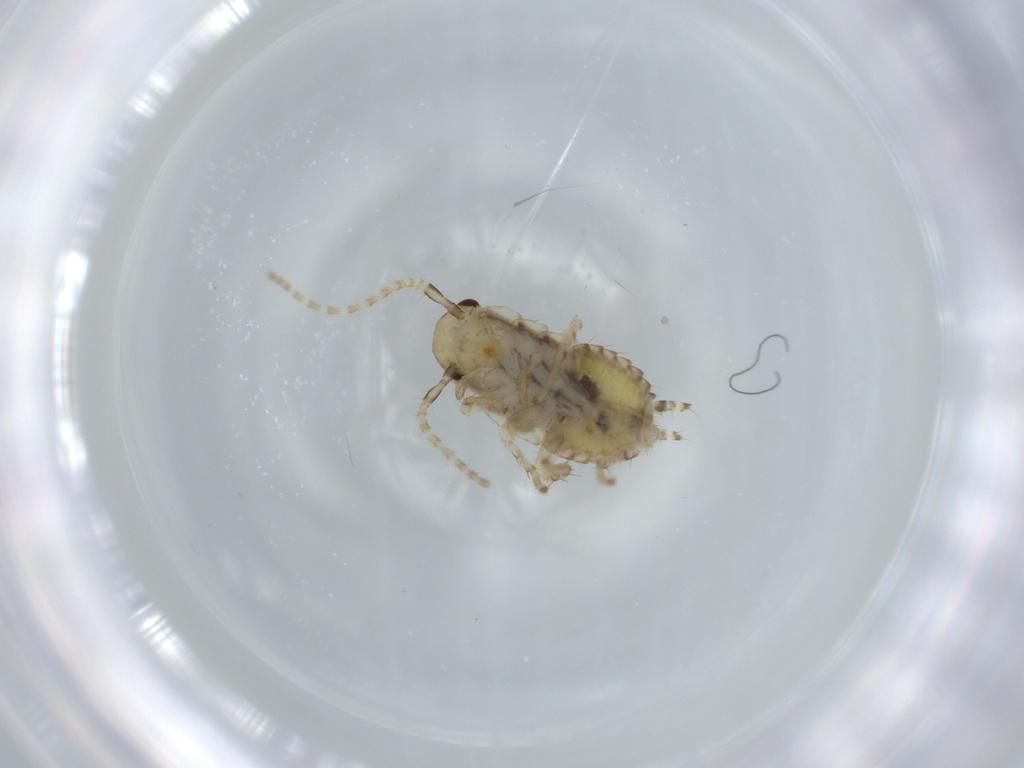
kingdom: Animalia
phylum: Arthropoda
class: Insecta
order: Blattodea
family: Ectobiidae
